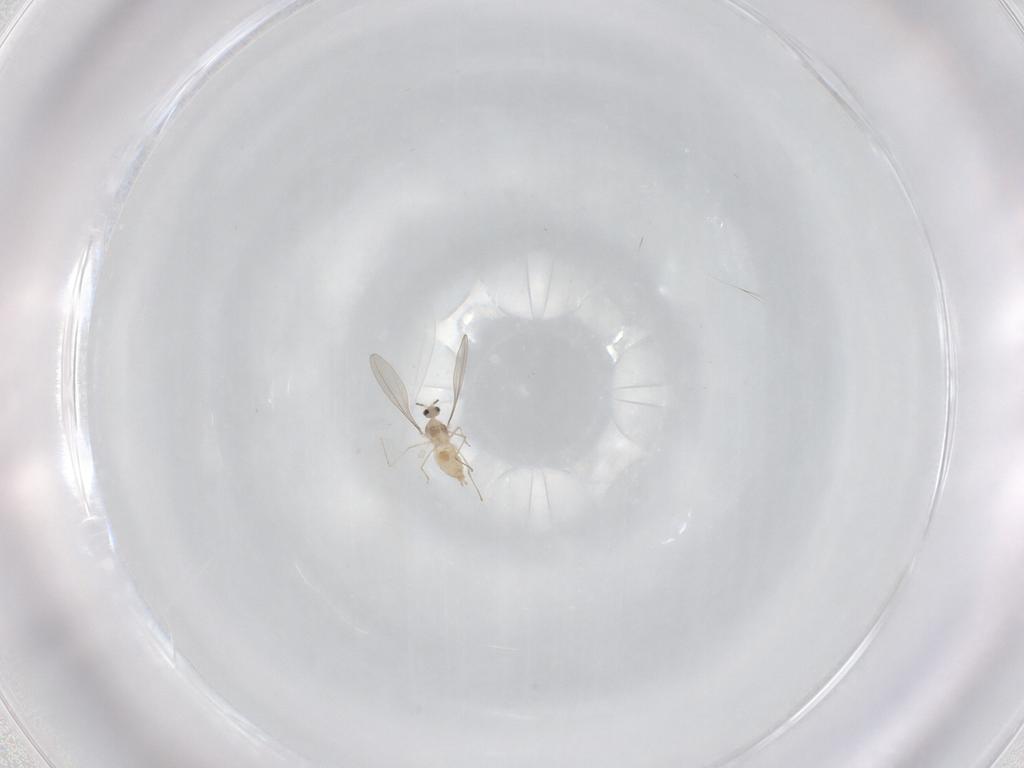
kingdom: Animalia
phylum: Arthropoda
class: Insecta
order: Diptera
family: Cecidomyiidae
